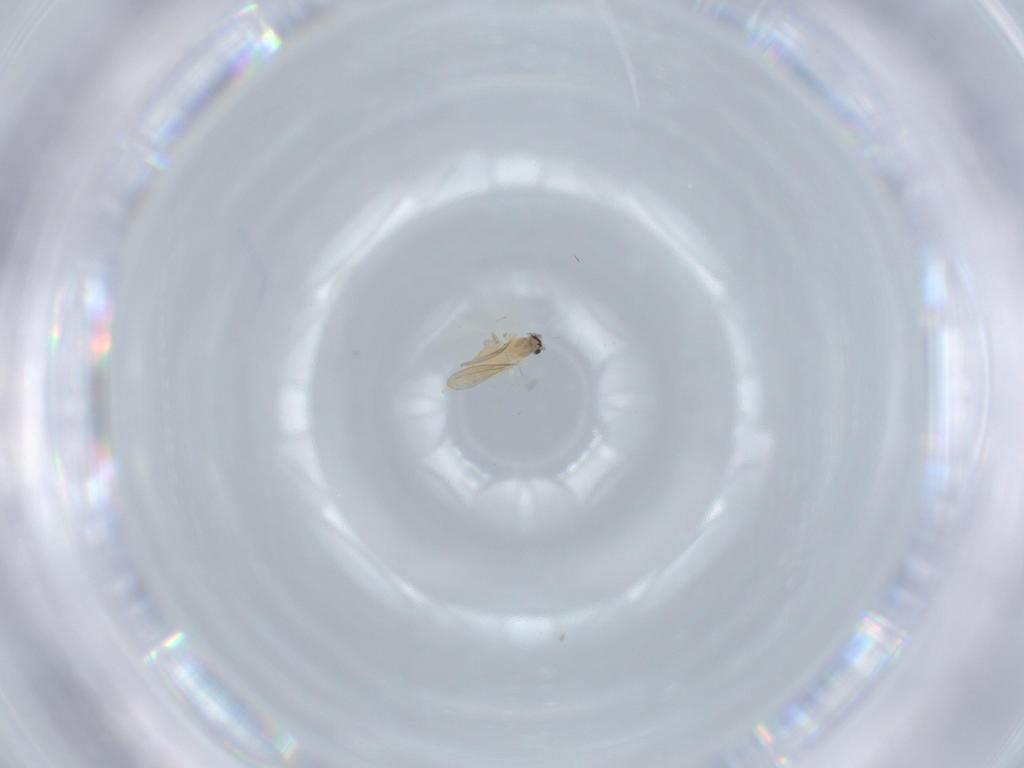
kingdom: Animalia
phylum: Arthropoda
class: Insecta
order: Diptera
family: Cecidomyiidae
